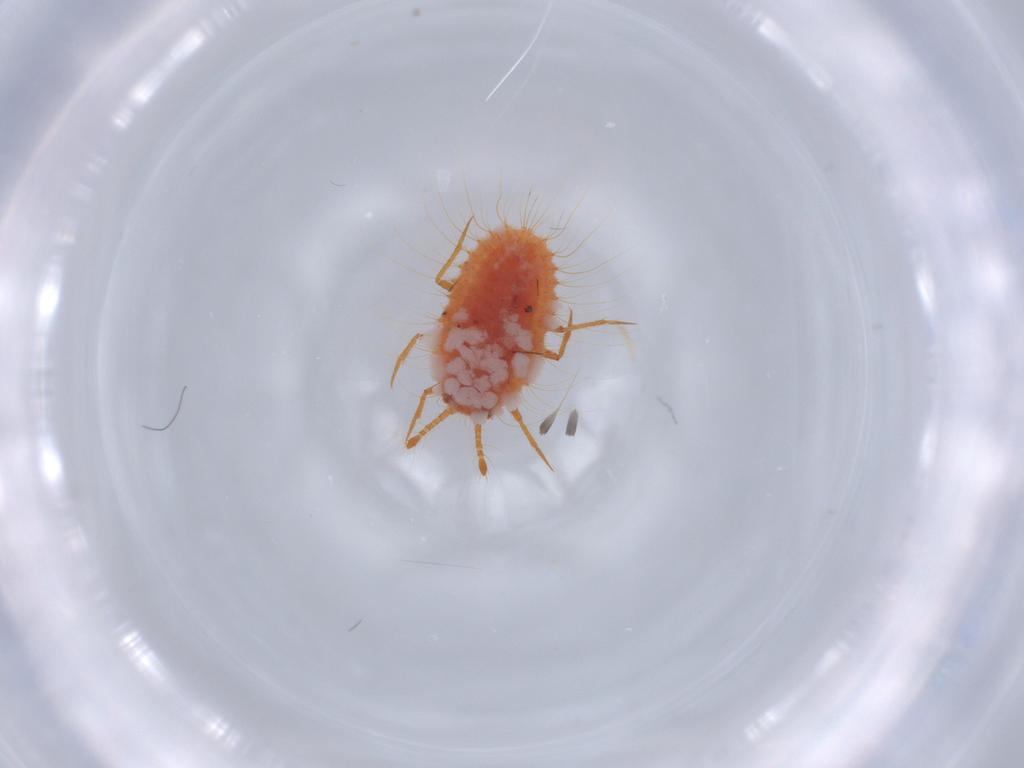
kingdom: Animalia
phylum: Arthropoda
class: Insecta
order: Hemiptera
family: Coccoidea_incertae_sedis
